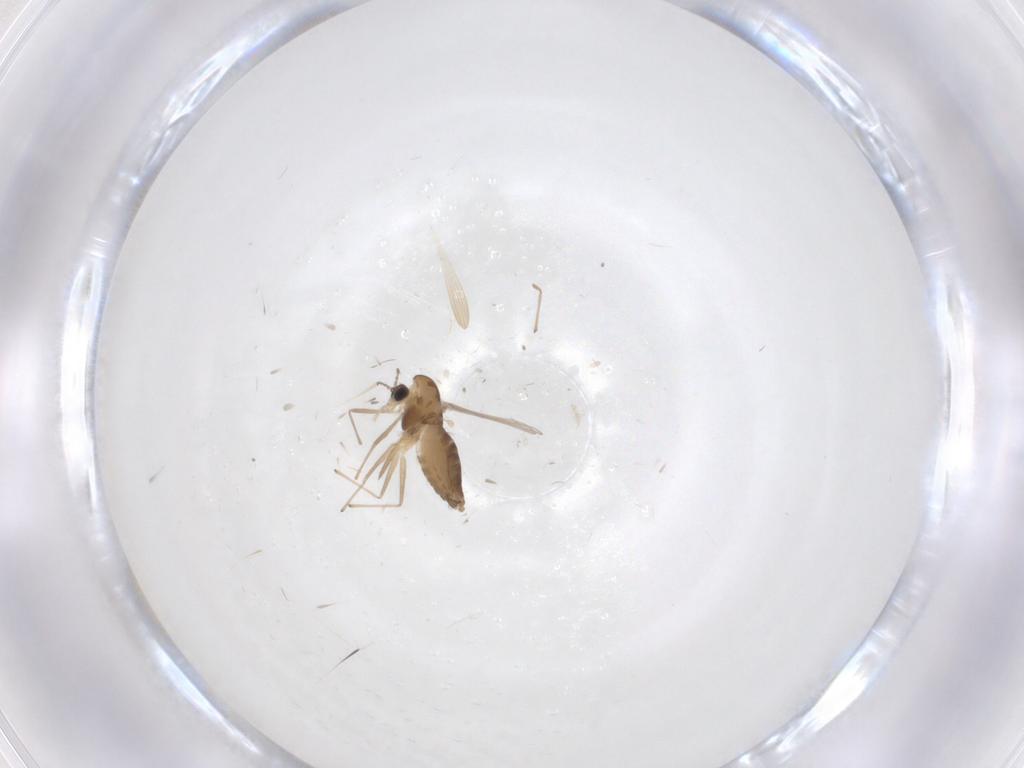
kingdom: Animalia
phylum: Arthropoda
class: Insecta
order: Diptera
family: Chironomidae
